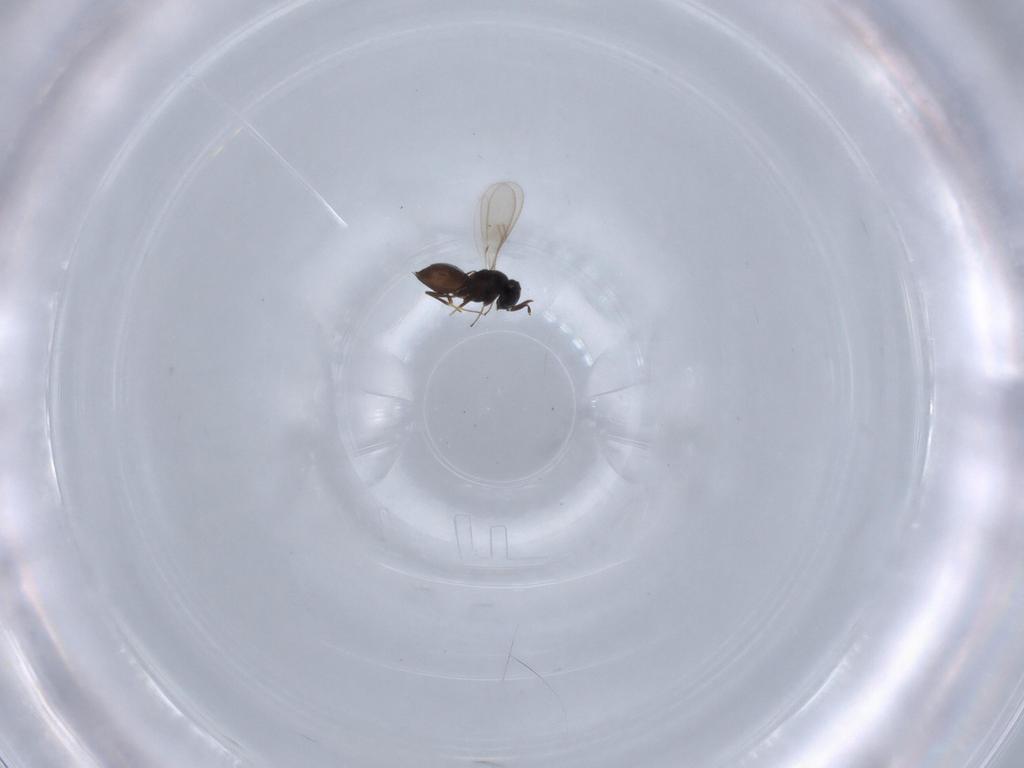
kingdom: Animalia
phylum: Arthropoda
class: Insecta
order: Hymenoptera
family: Scelionidae
